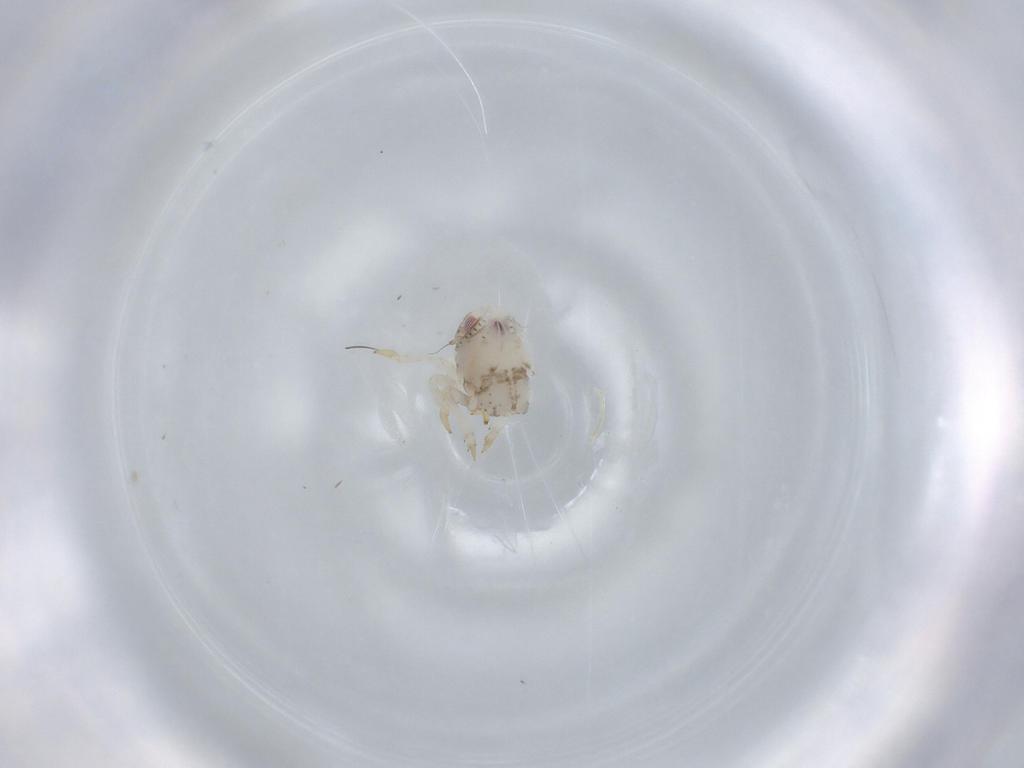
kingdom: Animalia
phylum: Arthropoda
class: Insecta
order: Hemiptera
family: Acanaloniidae
